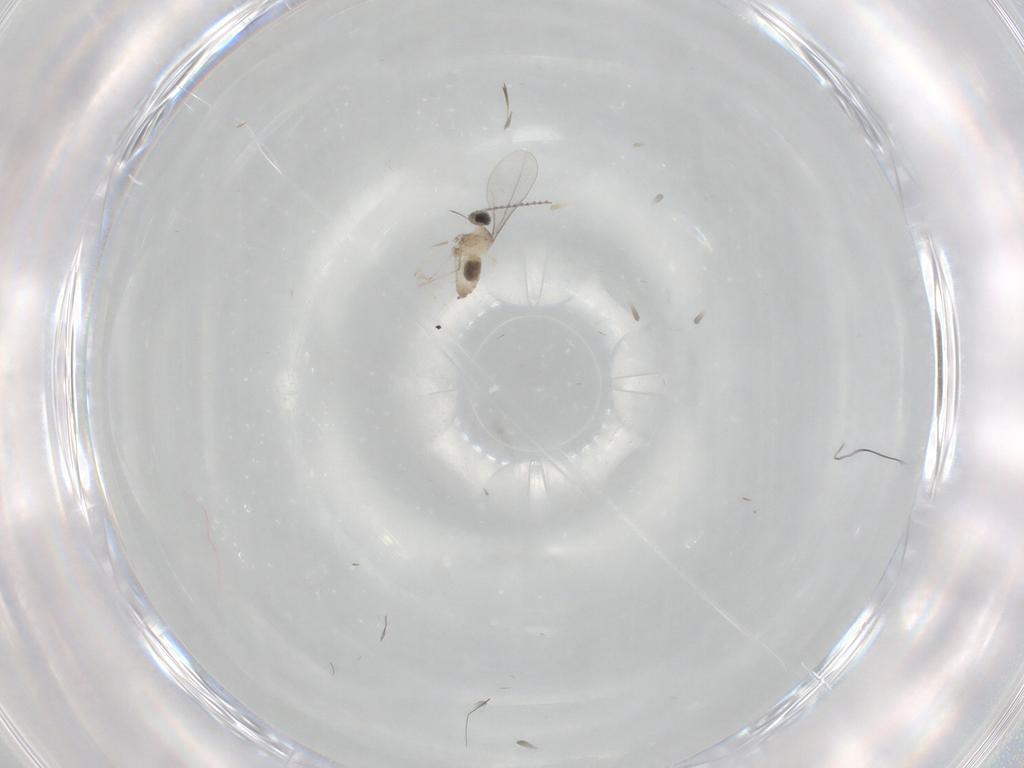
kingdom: Animalia
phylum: Arthropoda
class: Insecta
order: Diptera
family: Cecidomyiidae
